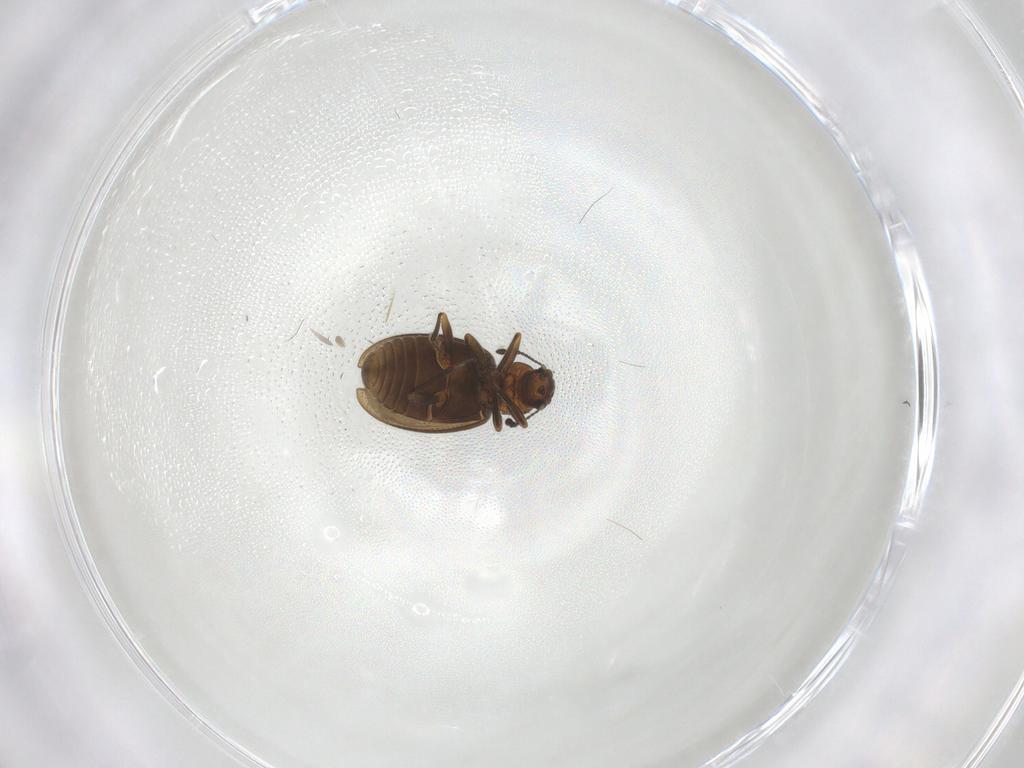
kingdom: Animalia
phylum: Arthropoda
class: Insecta
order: Coleoptera
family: Latridiidae
